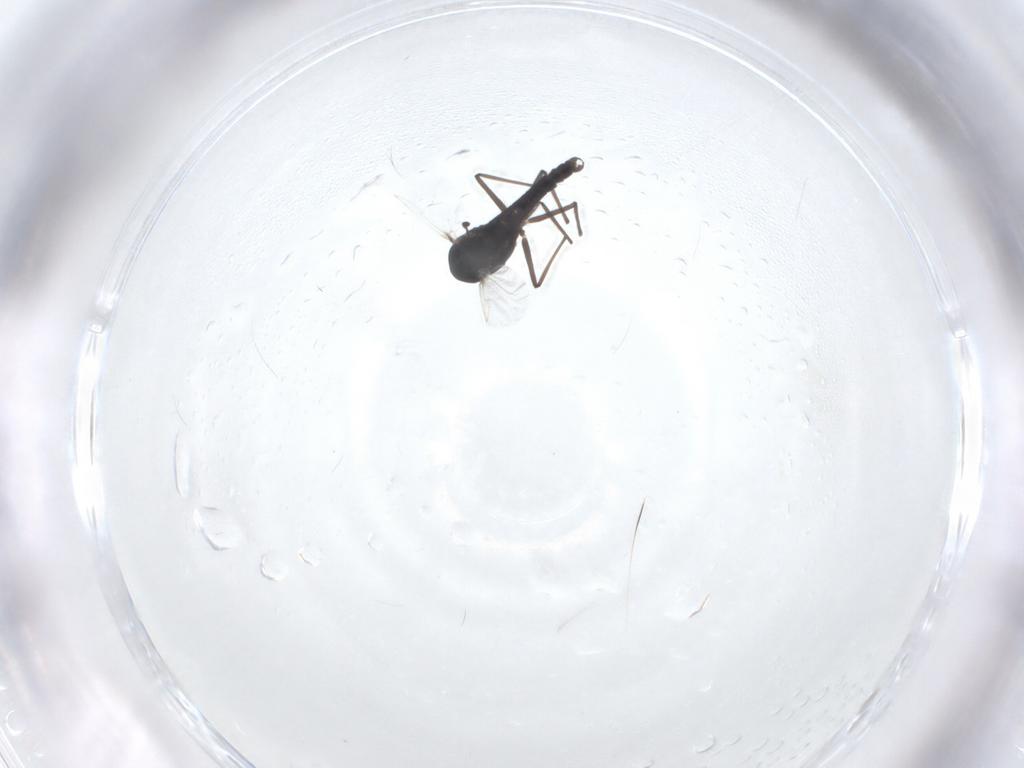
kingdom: Animalia
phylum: Arthropoda
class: Insecta
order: Diptera
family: Chironomidae
